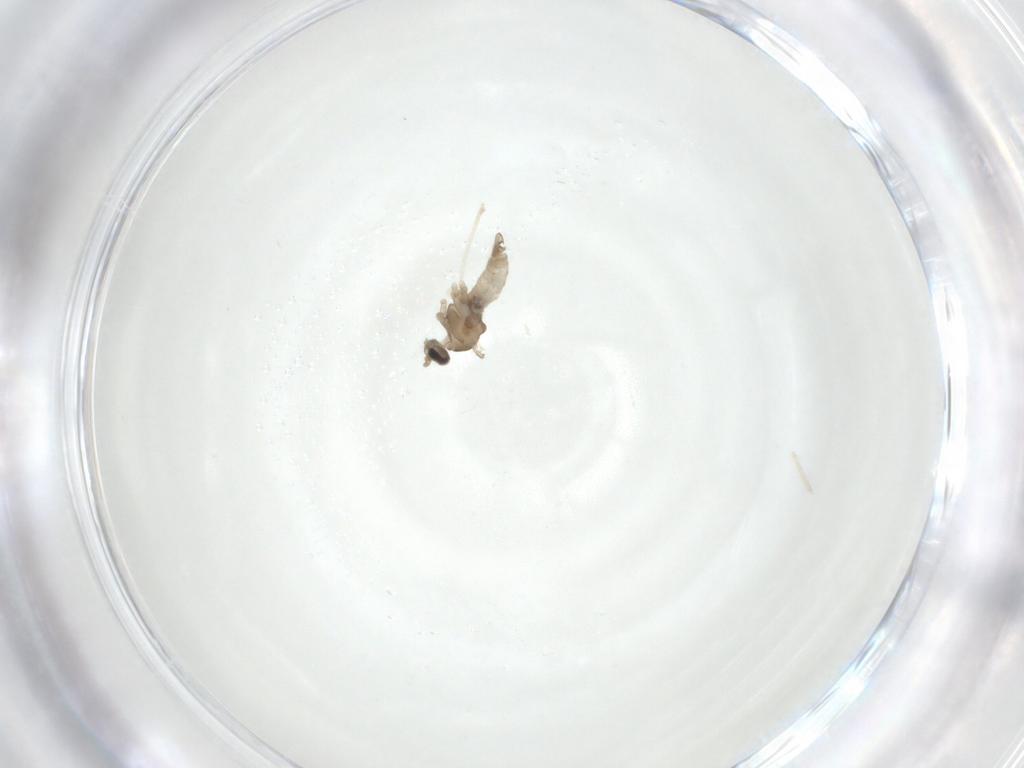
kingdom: Animalia
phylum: Arthropoda
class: Insecta
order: Diptera
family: Cecidomyiidae
